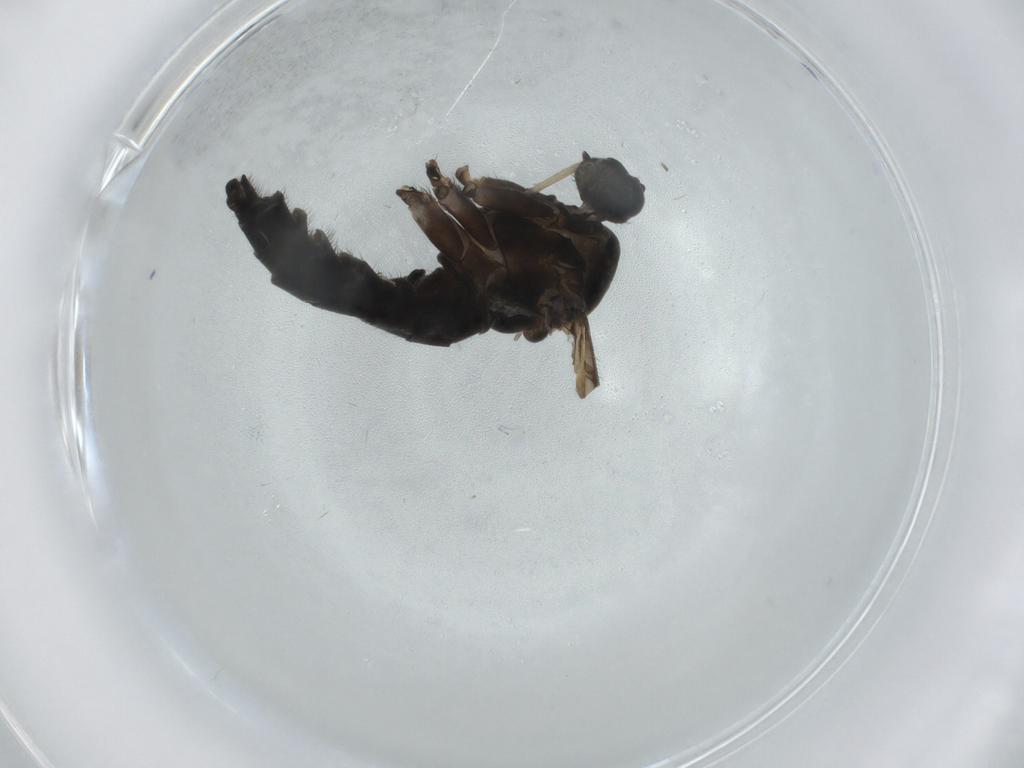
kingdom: Animalia
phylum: Arthropoda
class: Insecta
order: Diptera
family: Sciaridae
